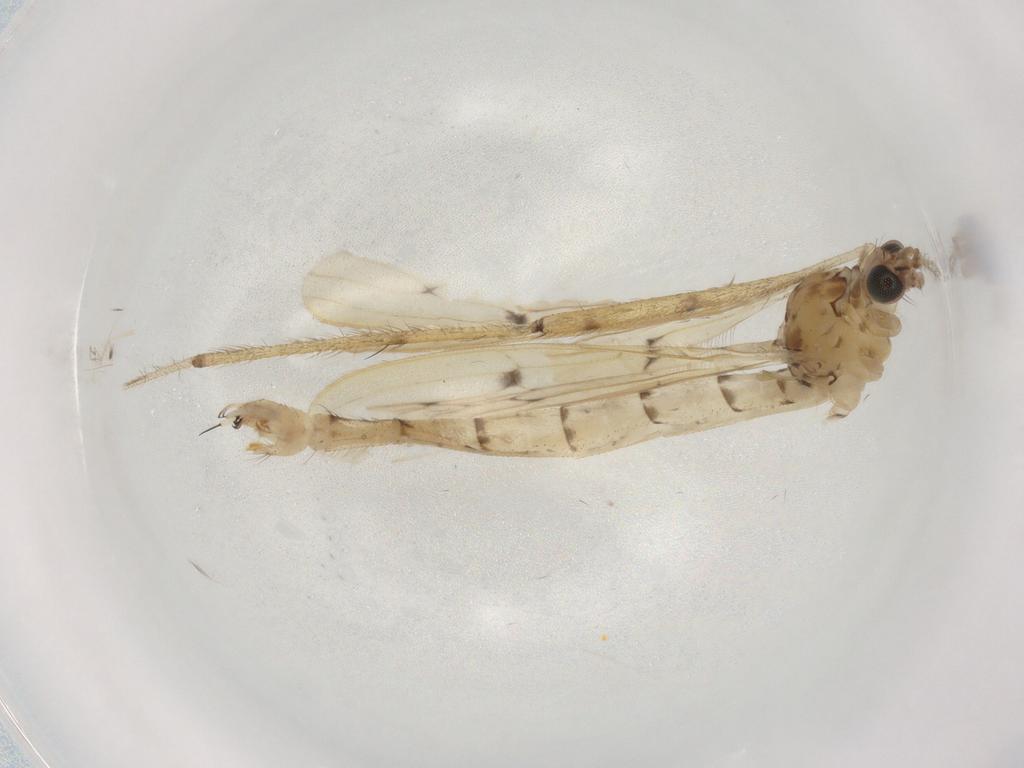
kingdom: Animalia
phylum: Arthropoda
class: Insecta
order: Diptera
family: Limoniidae
